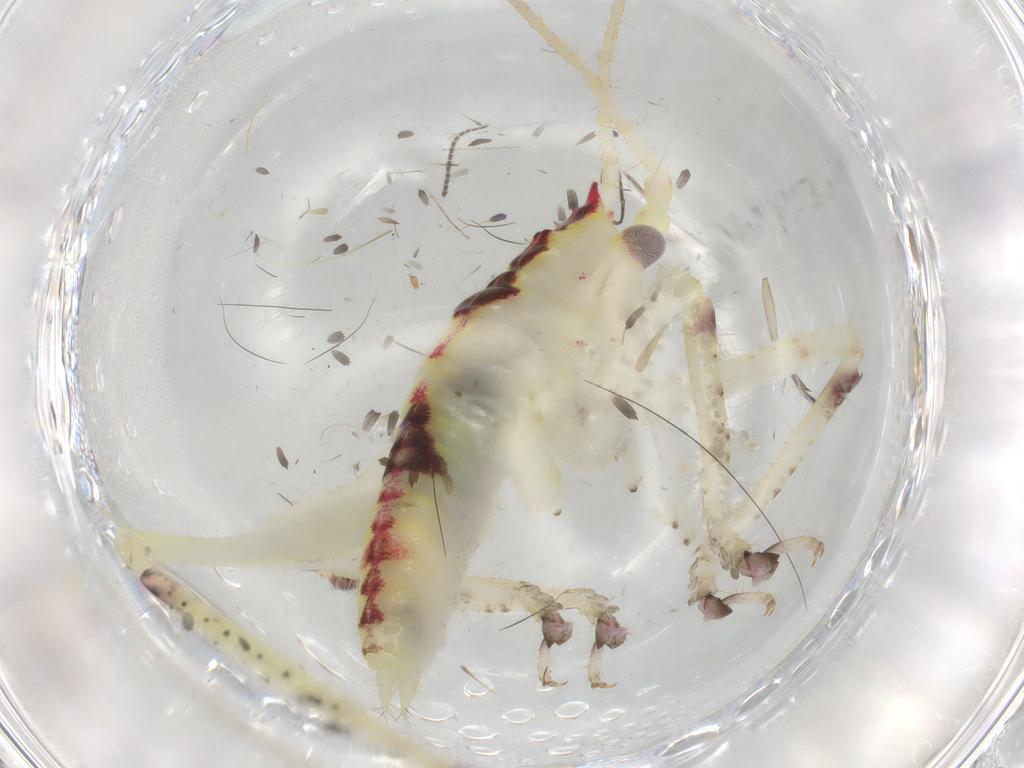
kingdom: Animalia
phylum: Arthropoda
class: Insecta
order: Orthoptera
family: Tettigoniidae
